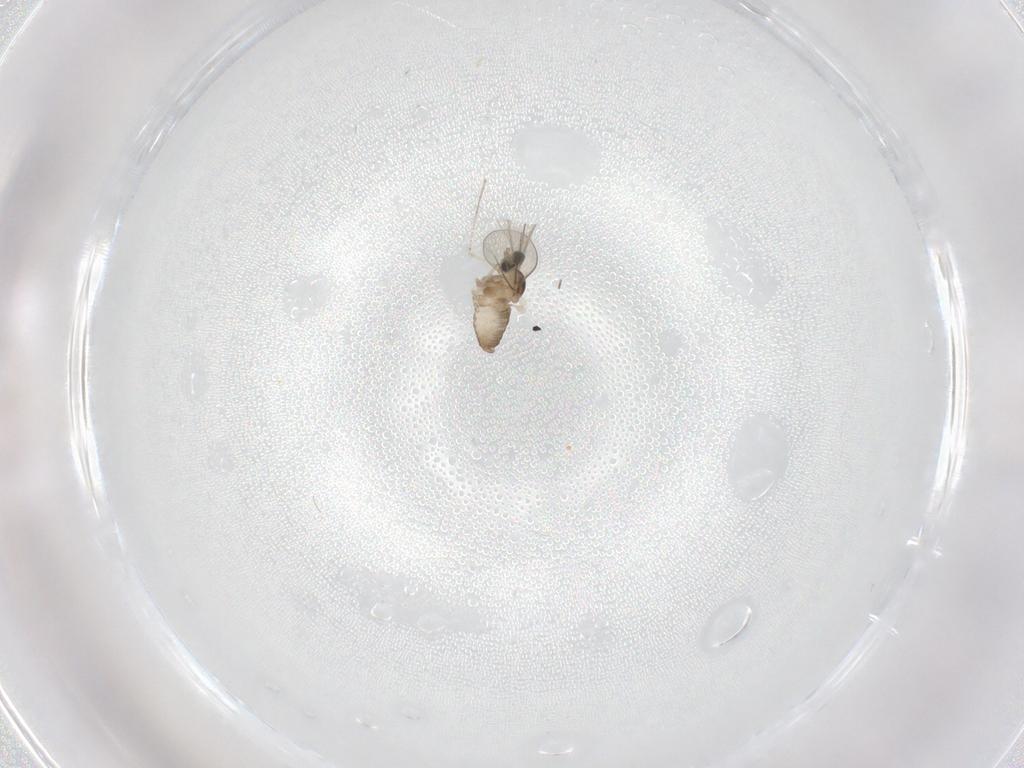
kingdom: Animalia
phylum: Arthropoda
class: Insecta
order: Diptera
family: Cecidomyiidae
